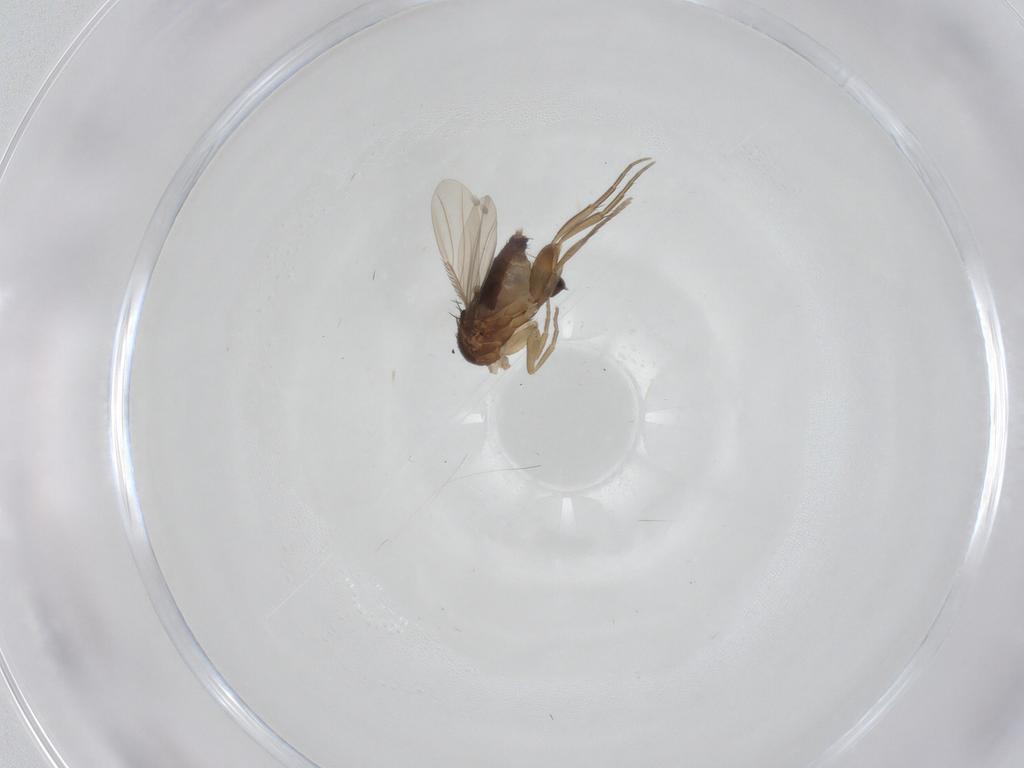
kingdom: Animalia
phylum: Arthropoda
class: Insecta
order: Diptera
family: Phoridae
